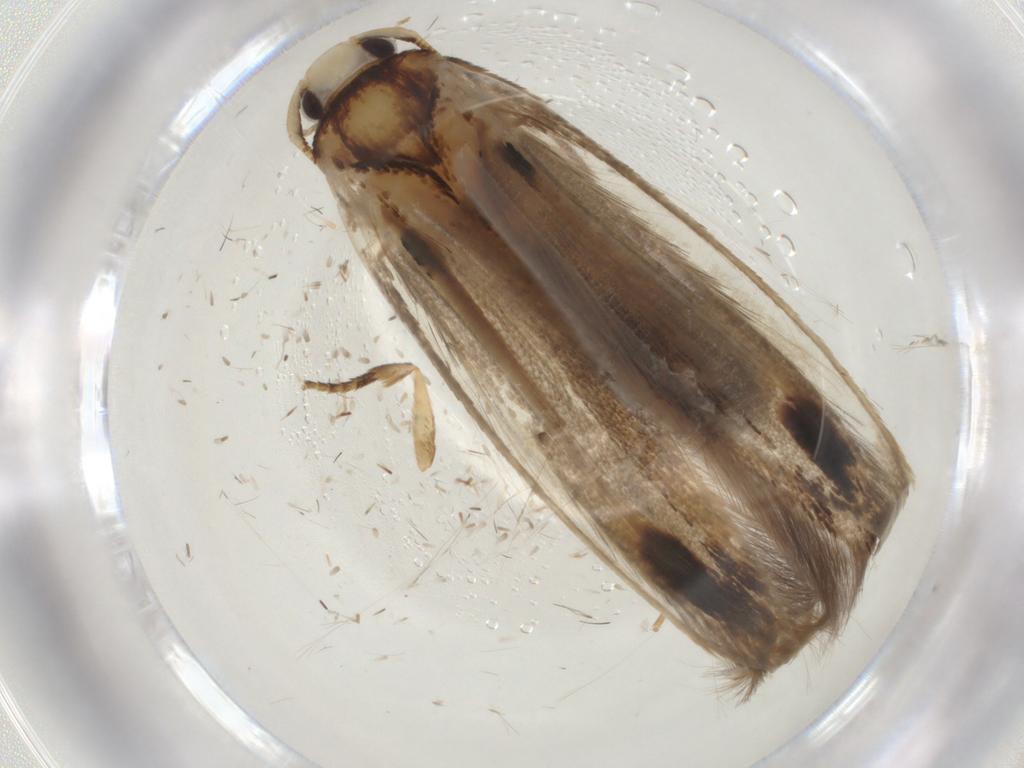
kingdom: Animalia
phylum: Arthropoda
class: Insecta
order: Lepidoptera
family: Tineidae
